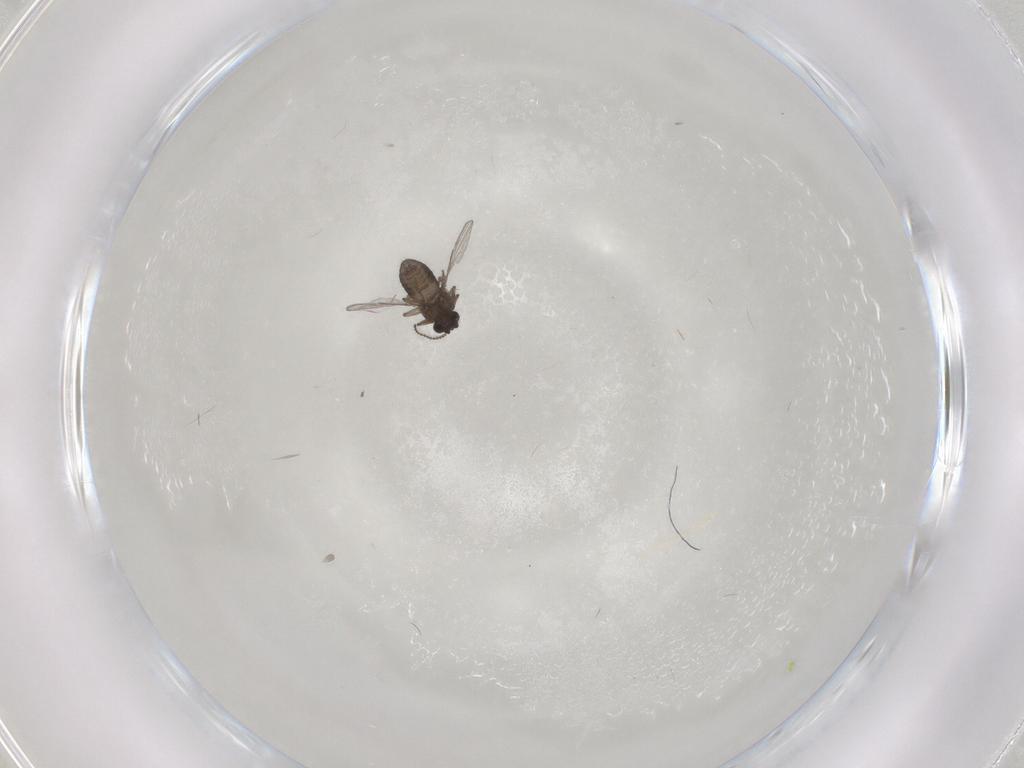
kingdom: Animalia
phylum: Arthropoda
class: Insecta
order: Diptera
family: Ceratopogonidae
